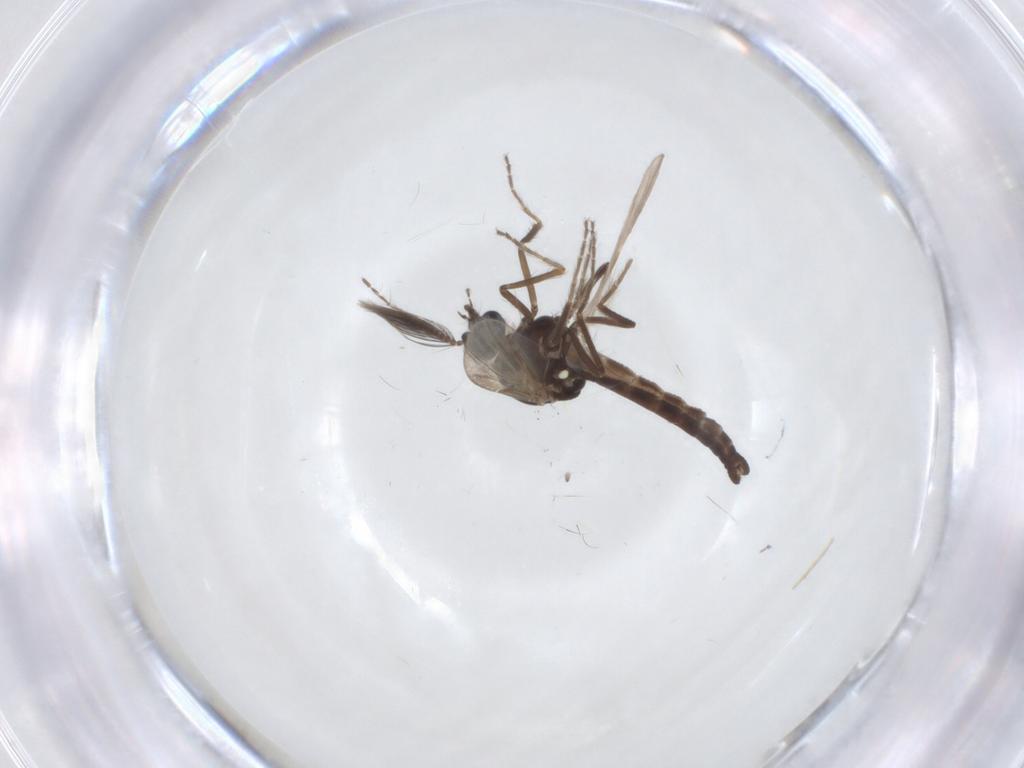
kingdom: Animalia
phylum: Arthropoda
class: Insecta
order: Diptera
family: Ceratopogonidae
